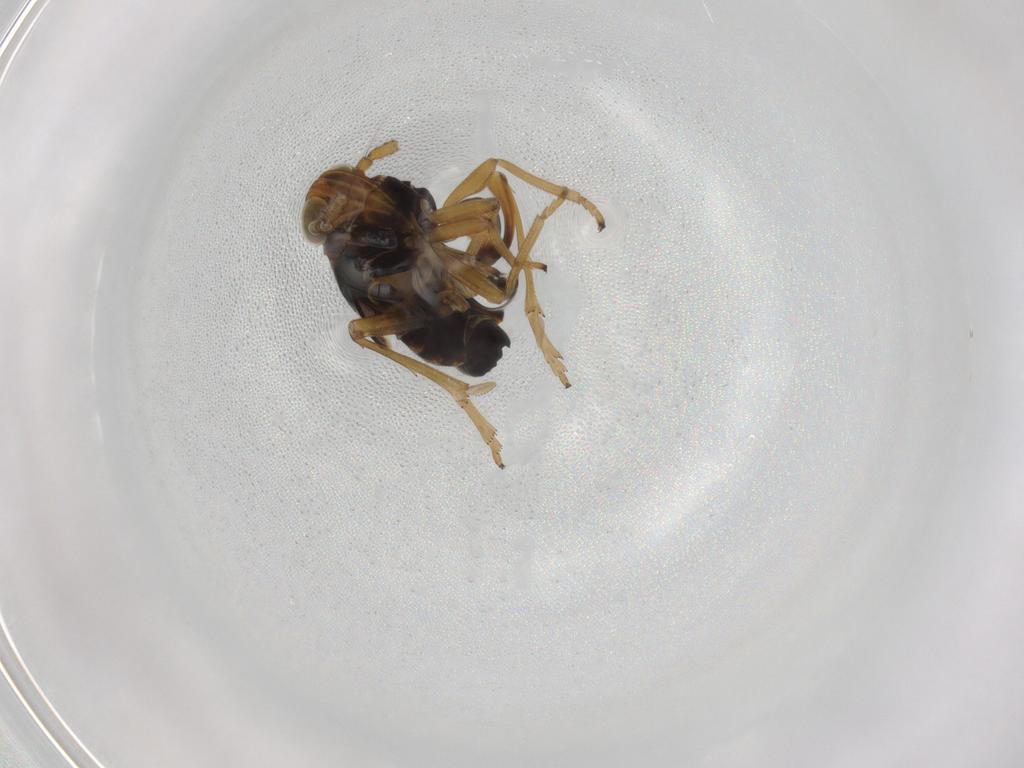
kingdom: Animalia
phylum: Arthropoda
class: Insecta
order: Hemiptera
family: Delphacidae
